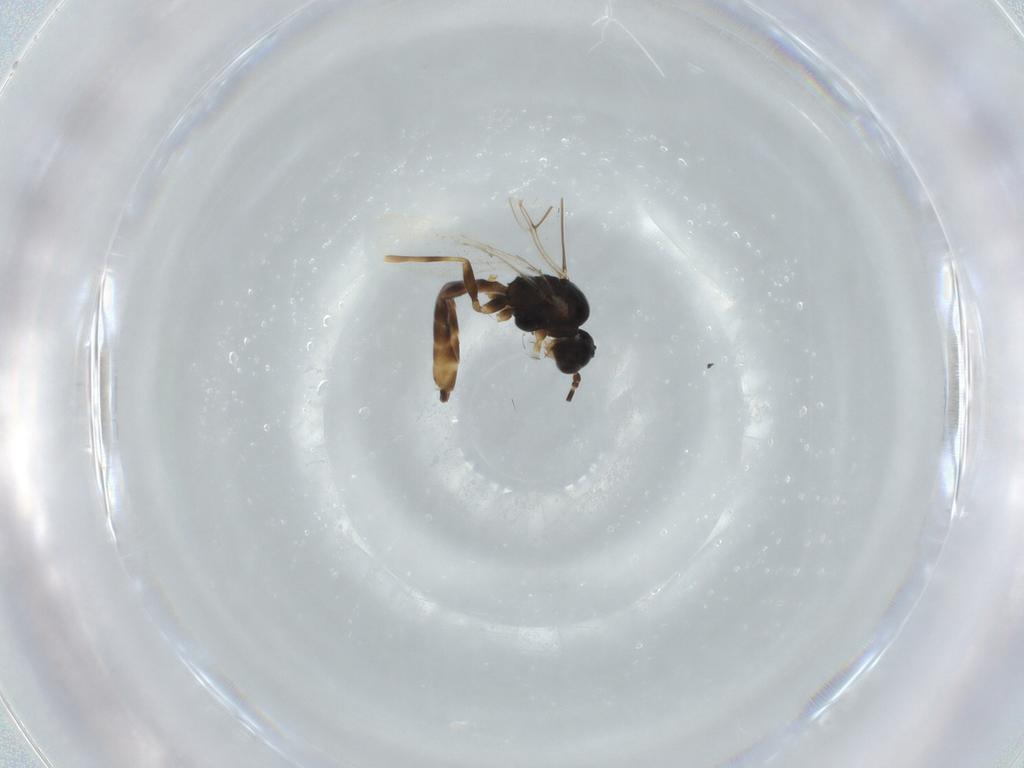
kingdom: Animalia
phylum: Arthropoda
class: Insecta
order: Hymenoptera
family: Braconidae
